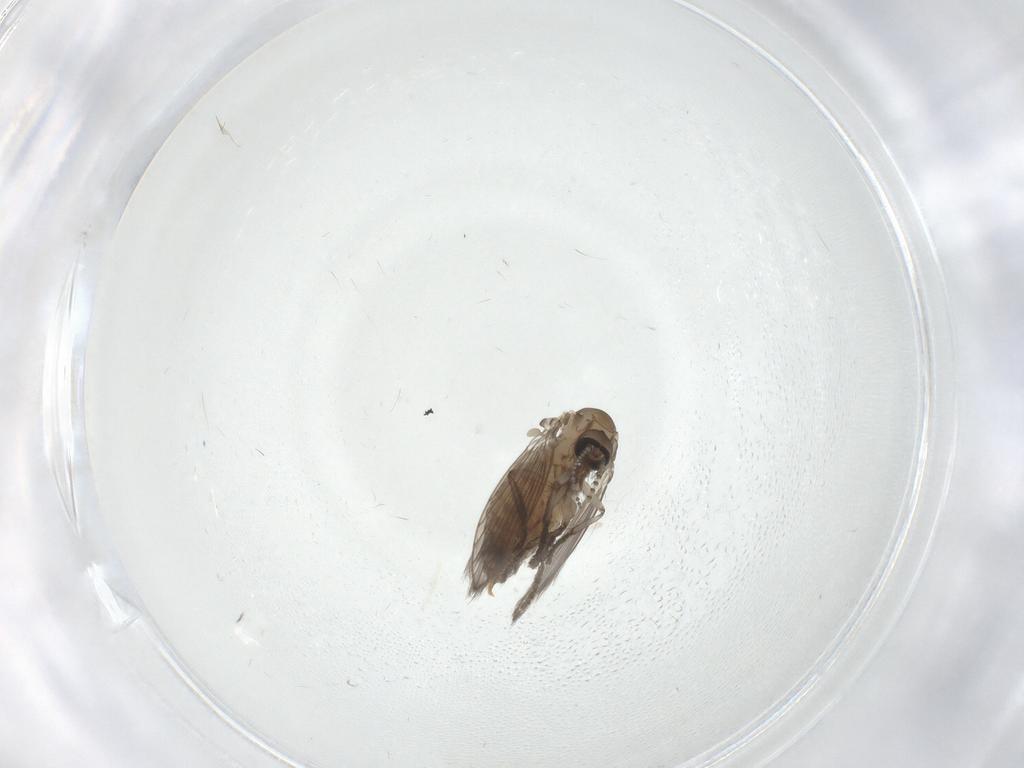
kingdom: Animalia
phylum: Arthropoda
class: Insecta
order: Diptera
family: Psychodidae
